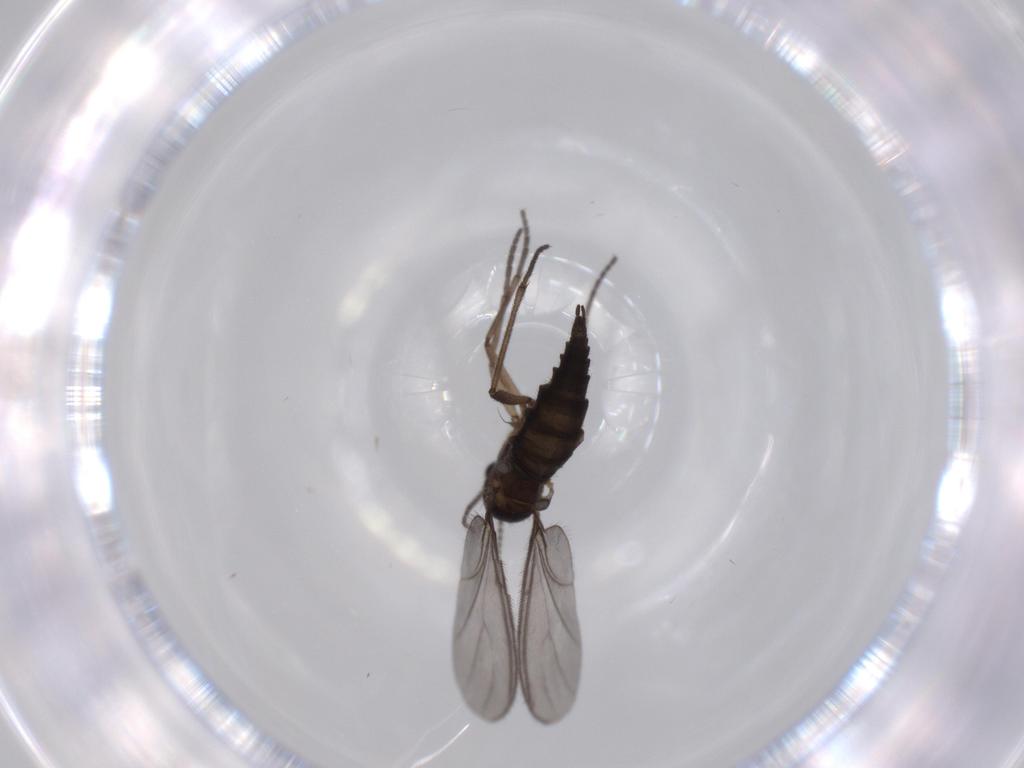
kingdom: Animalia
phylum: Arthropoda
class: Insecta
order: Diptera
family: Sciaridae
